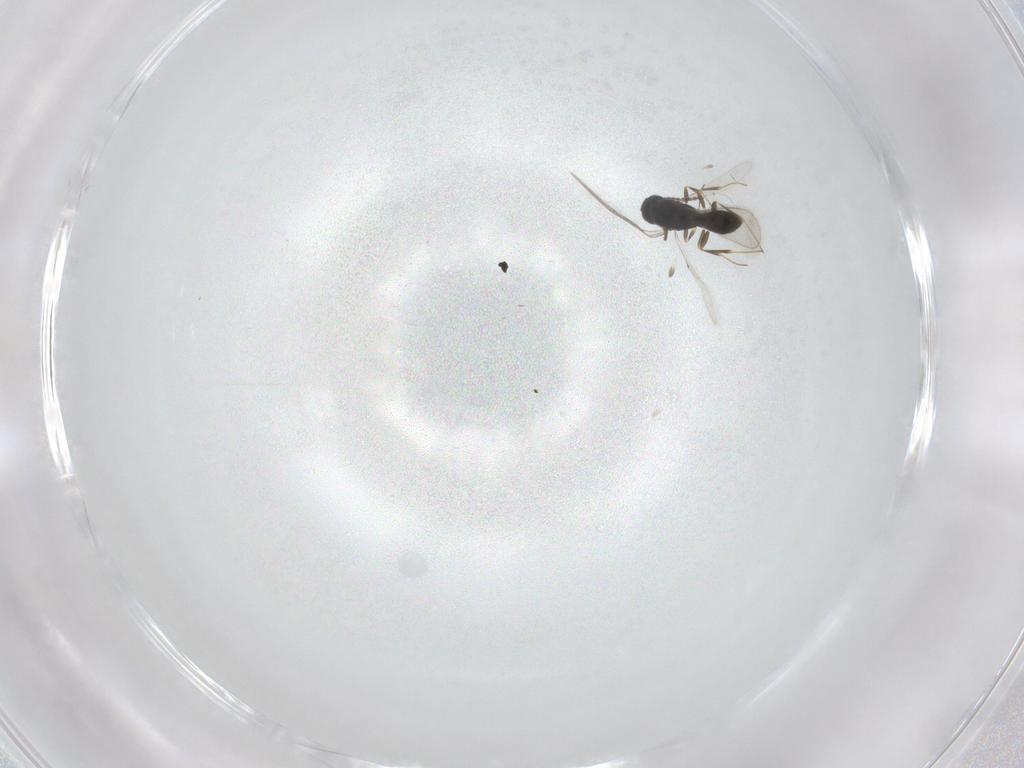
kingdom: Animalia
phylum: Arthropoda
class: Insecta
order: Hymenoptera
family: Scelionidae
